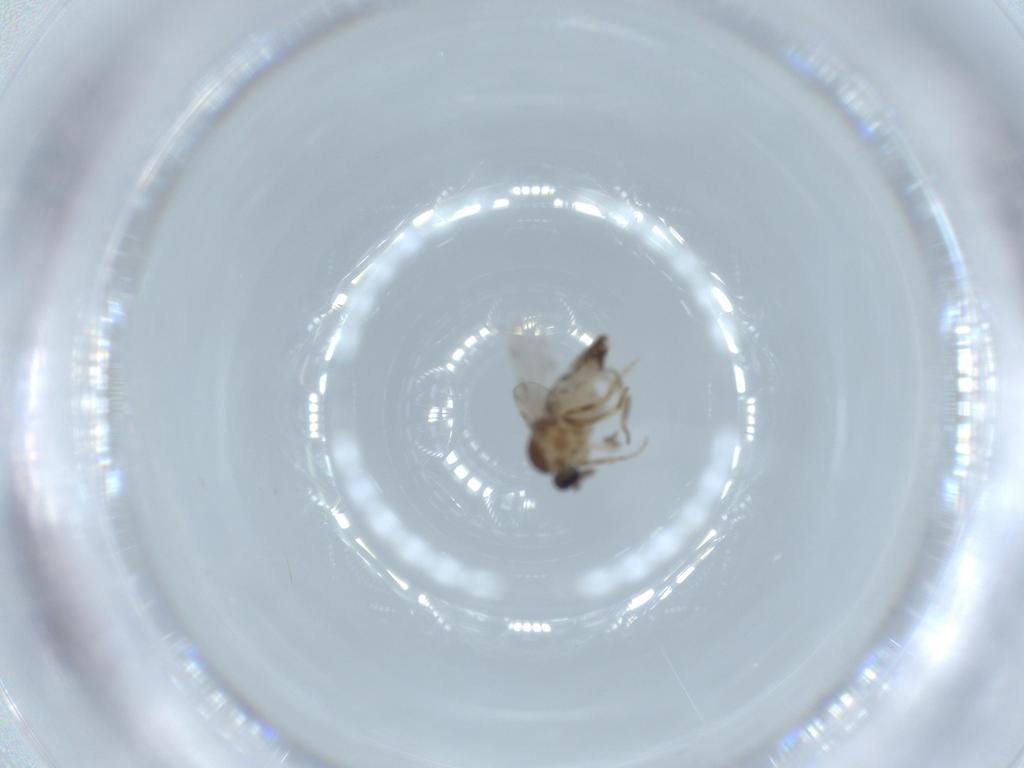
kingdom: Animalia
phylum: Arthropoda
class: Insecta
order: Diptera
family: Ceratopogonidae
